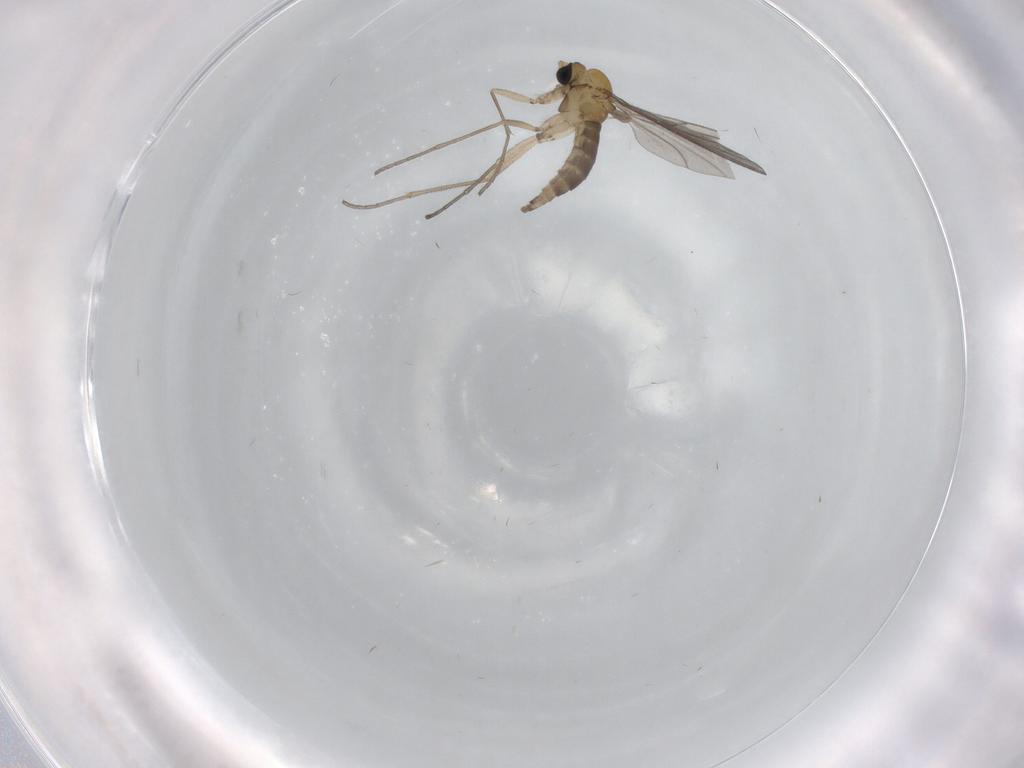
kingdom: Animalia
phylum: Arthropoda
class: Insecta
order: Diptera
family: Sciaridae
